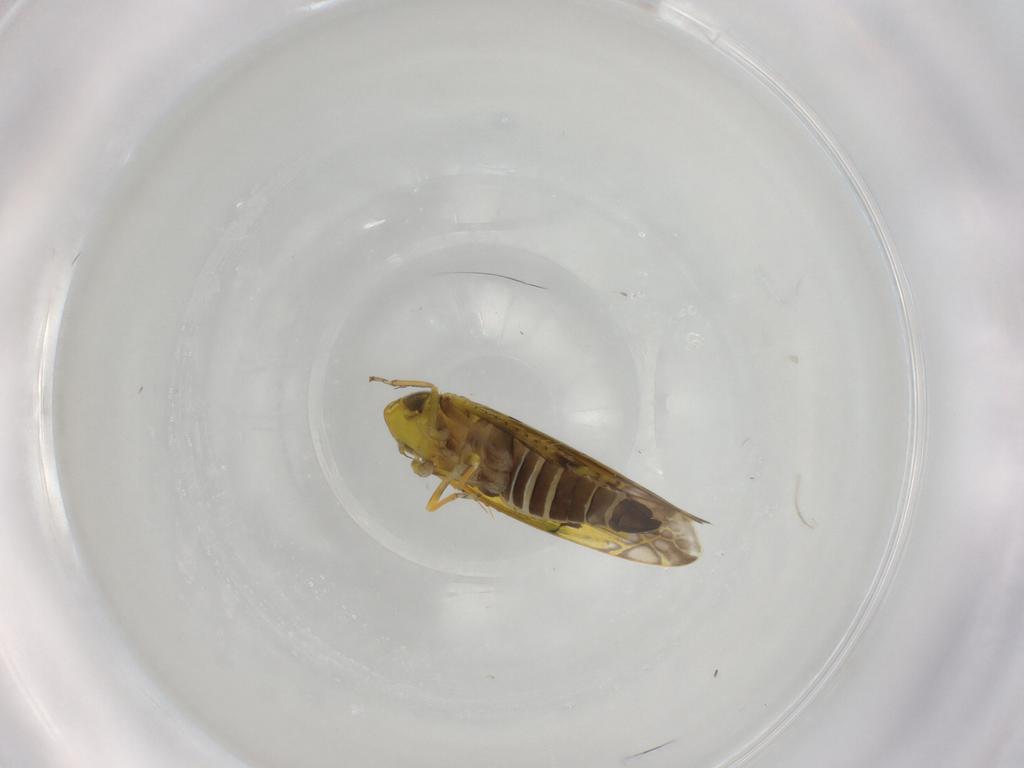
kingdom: Animalia
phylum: Arthropoda
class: Insecta
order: Hemiptera
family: Cicadellidae
